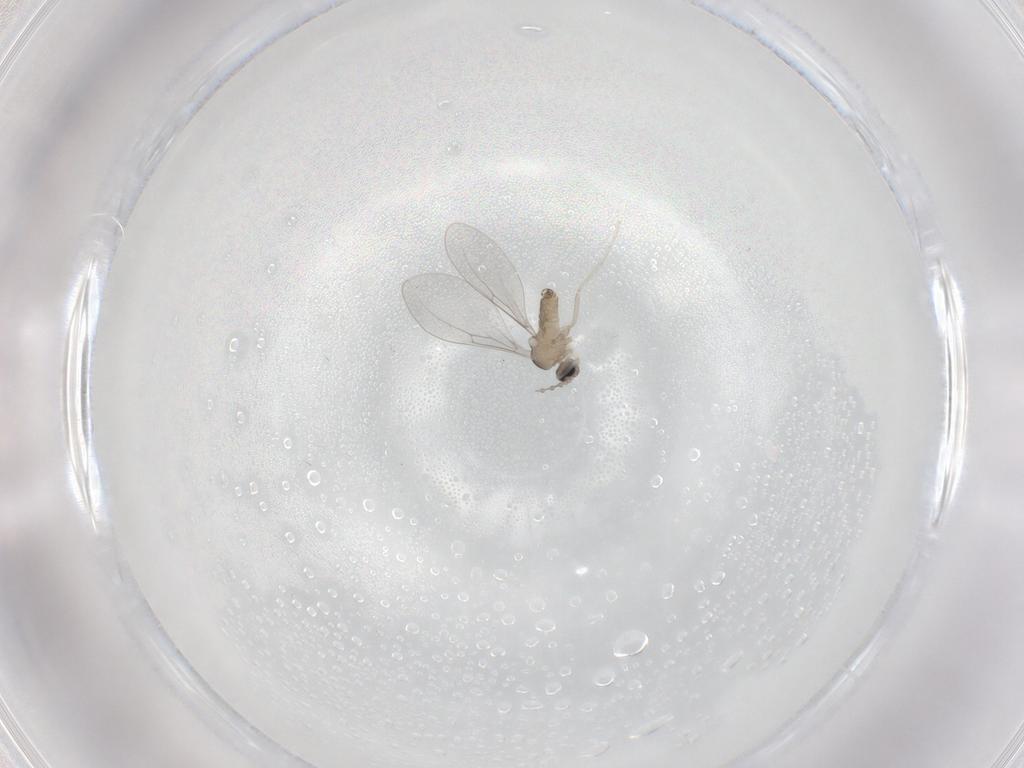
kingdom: Animalia
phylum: Arthropoda
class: Insecta
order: Diptera
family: Cecidomyiidae
